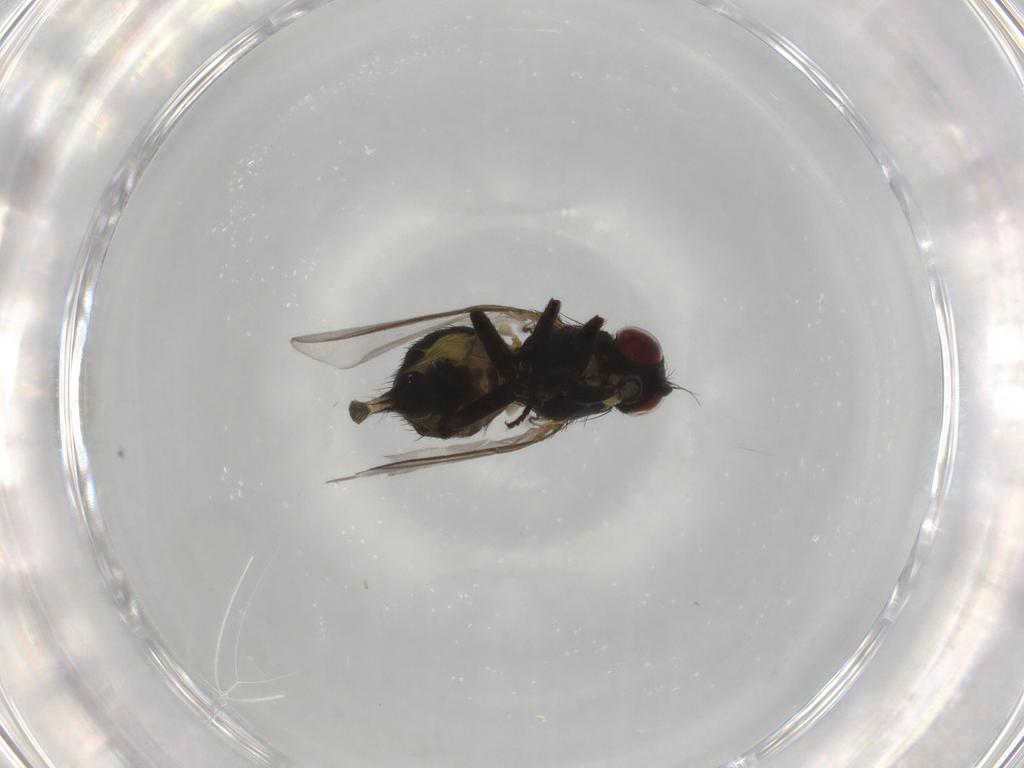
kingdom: Animalia
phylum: Arthropoda
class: Insecta
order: Diptera
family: Agromyzidae
